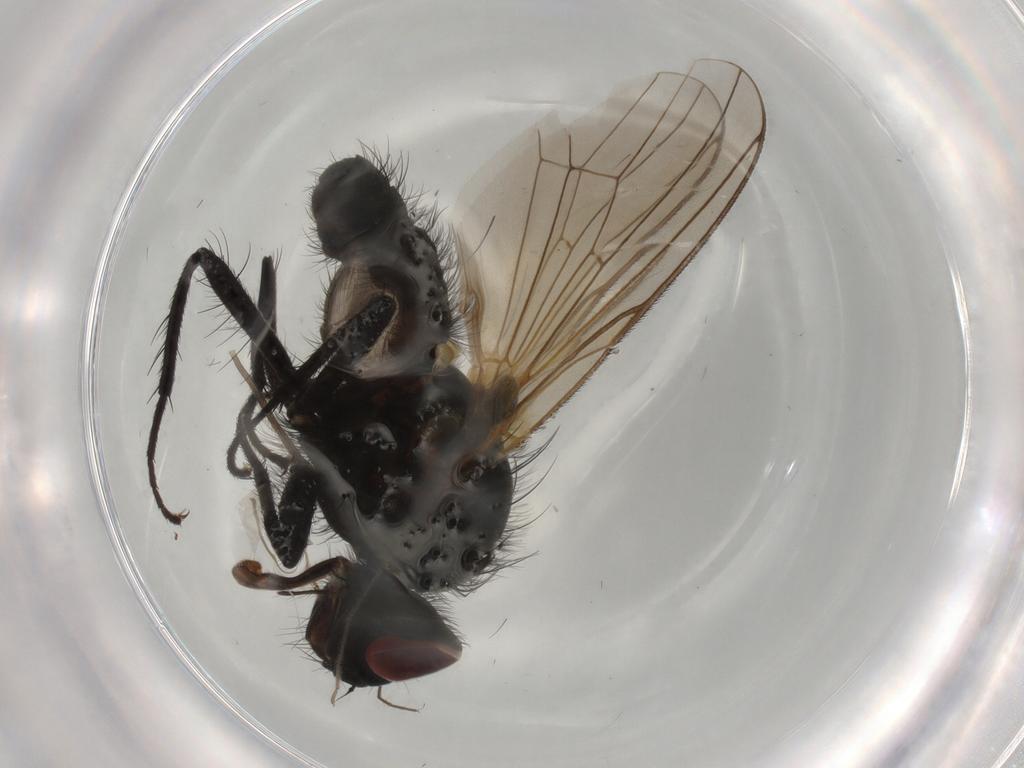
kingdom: Animalia
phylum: Arthropoda
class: Insecta
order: Diptera
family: Anthomyiidae
